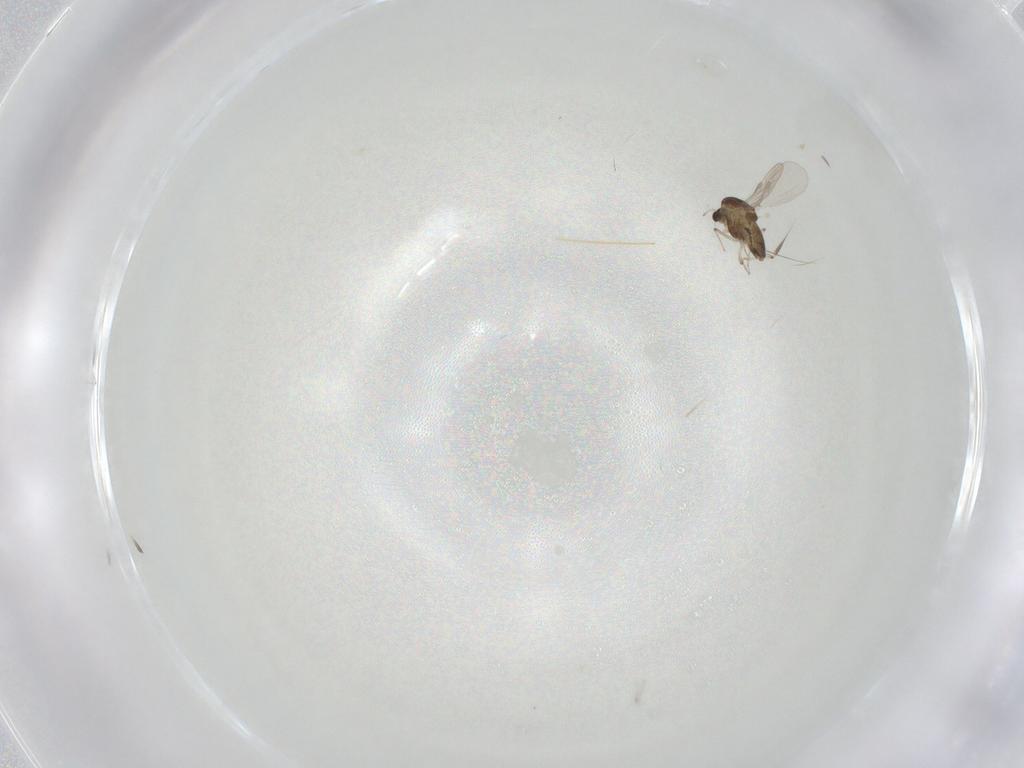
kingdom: Animalia
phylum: Arthropoda
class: Insecta
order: Diptera
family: Chironomidae
